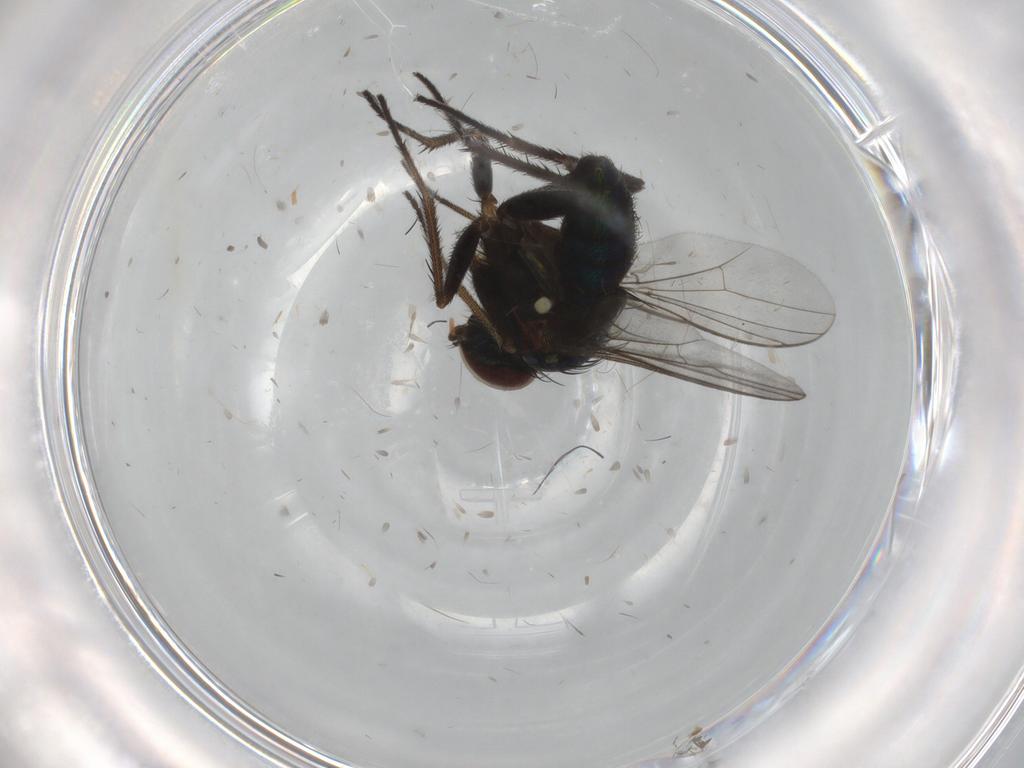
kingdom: Animalia
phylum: Arthropoda
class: Insecta
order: Diptera
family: Dolichopodidae
